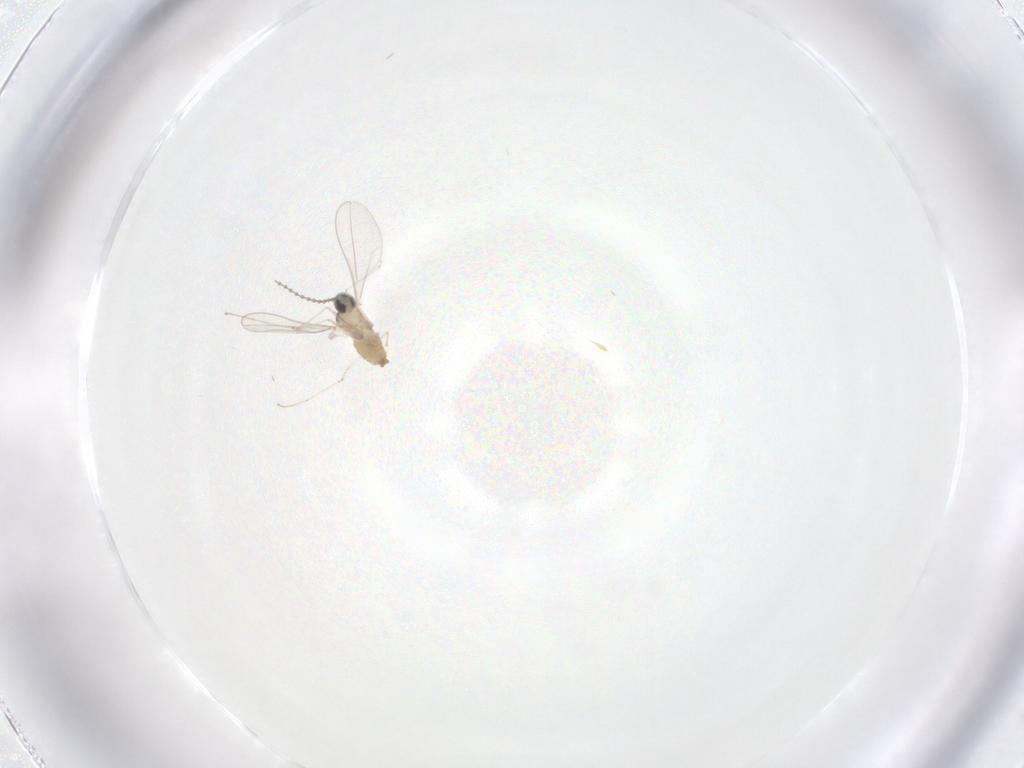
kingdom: Animalia
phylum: Arthropoda
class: Insecta
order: Diptera
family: Cecidomyiidae
